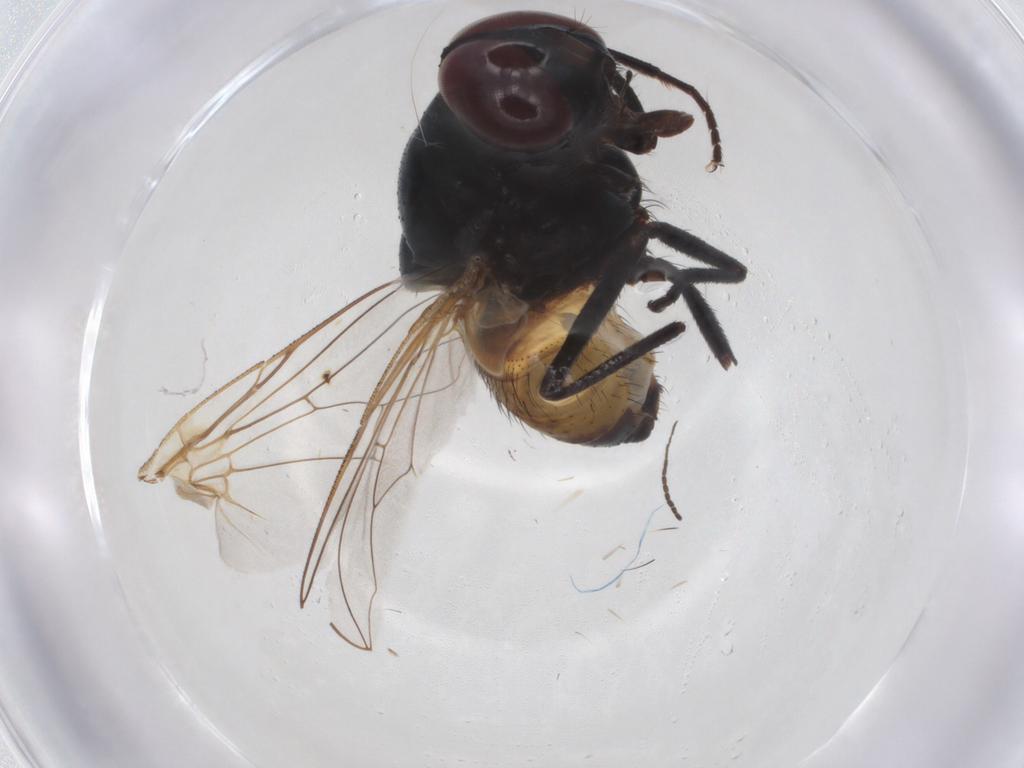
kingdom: Animalia
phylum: Arthropoda
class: Insecta
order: Diptera
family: Muscidae
